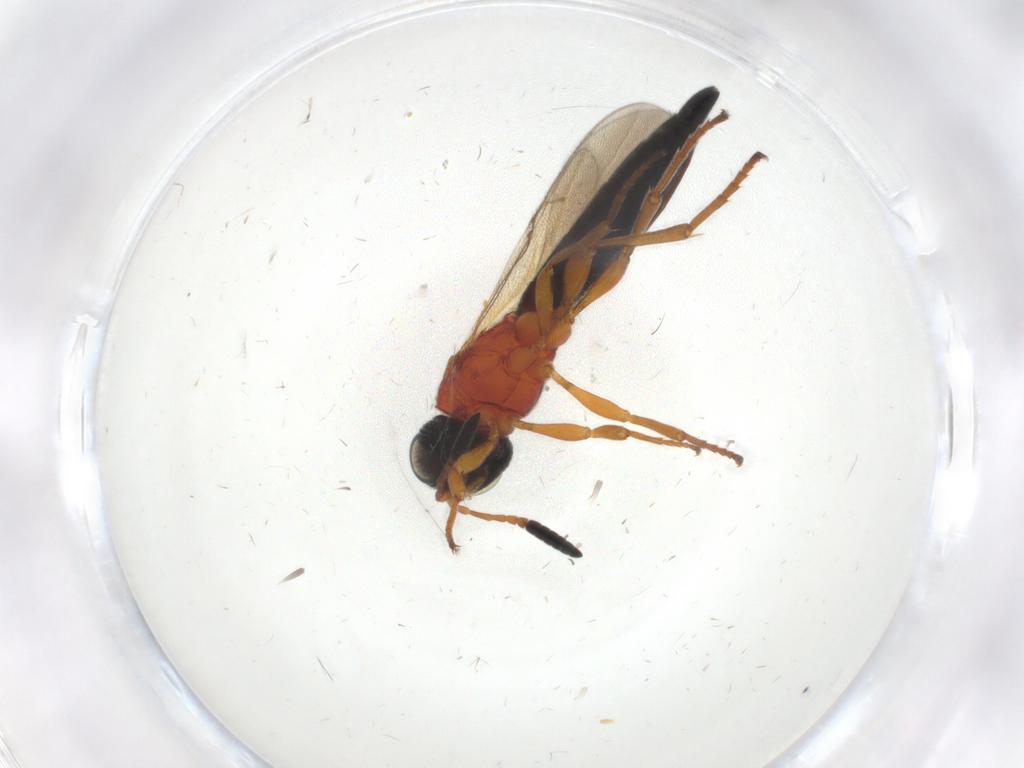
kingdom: Animalia
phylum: Arthropoda
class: Insecta
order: Hymenoptera
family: Scelionidae
